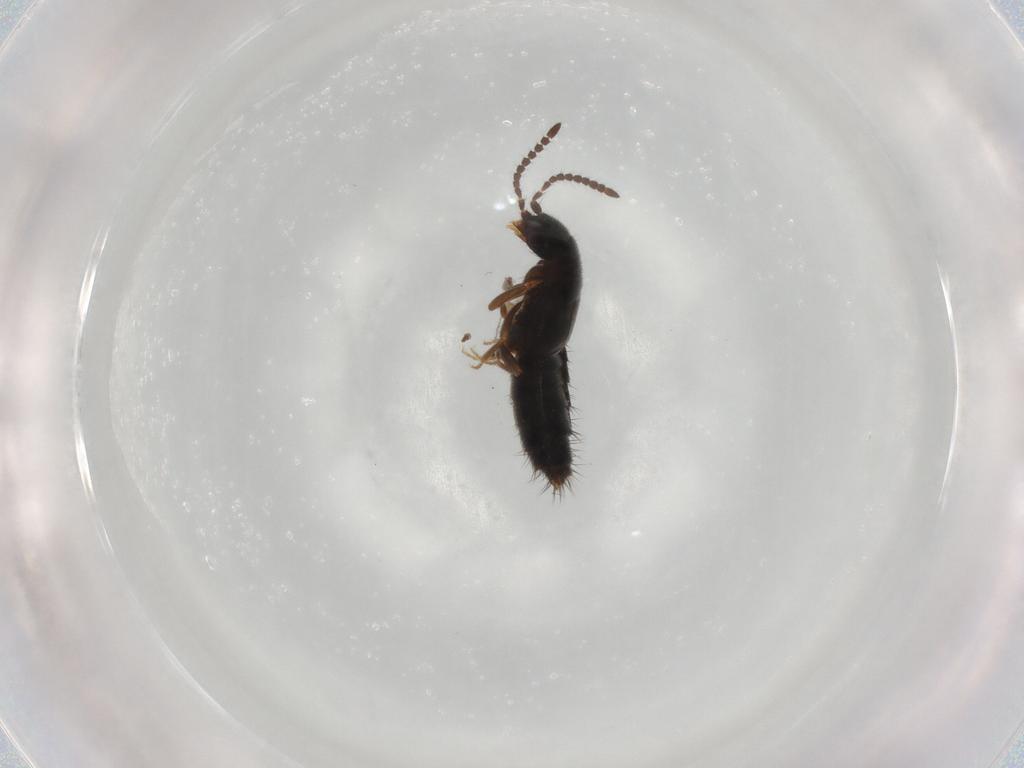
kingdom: Animalia
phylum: Arthropoda
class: Insecta
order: Coleoptera
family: Staphylinidae
